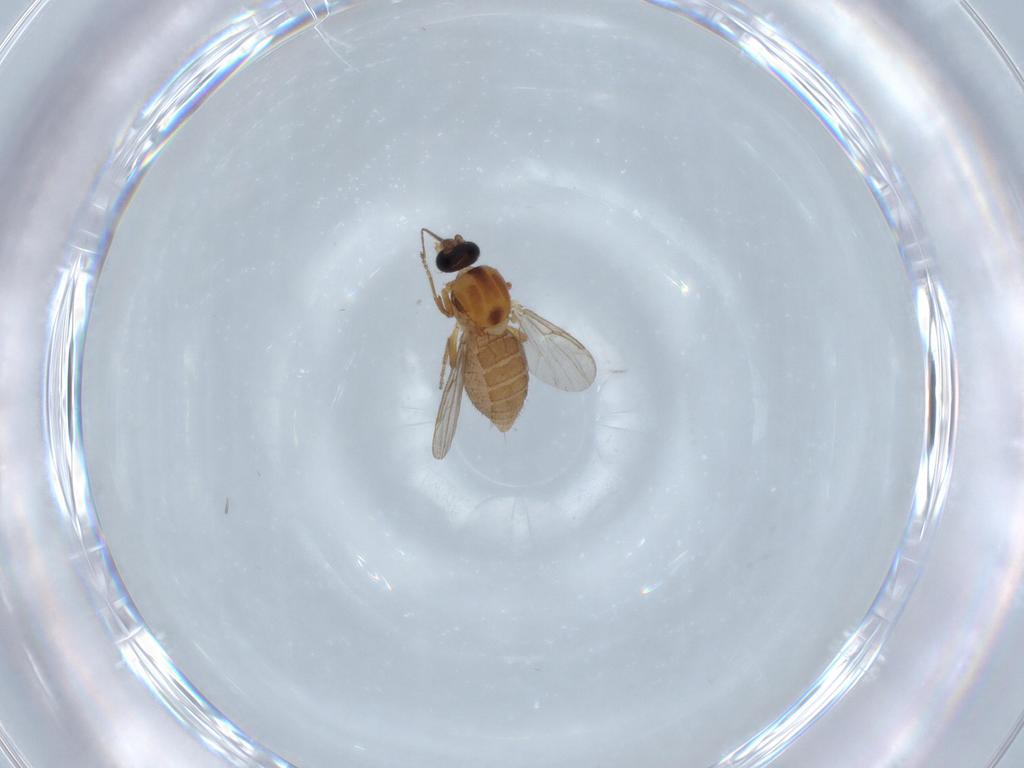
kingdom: Animalia
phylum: Arthropoda
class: Insecta
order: Diptera
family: Ceratopogonidae
